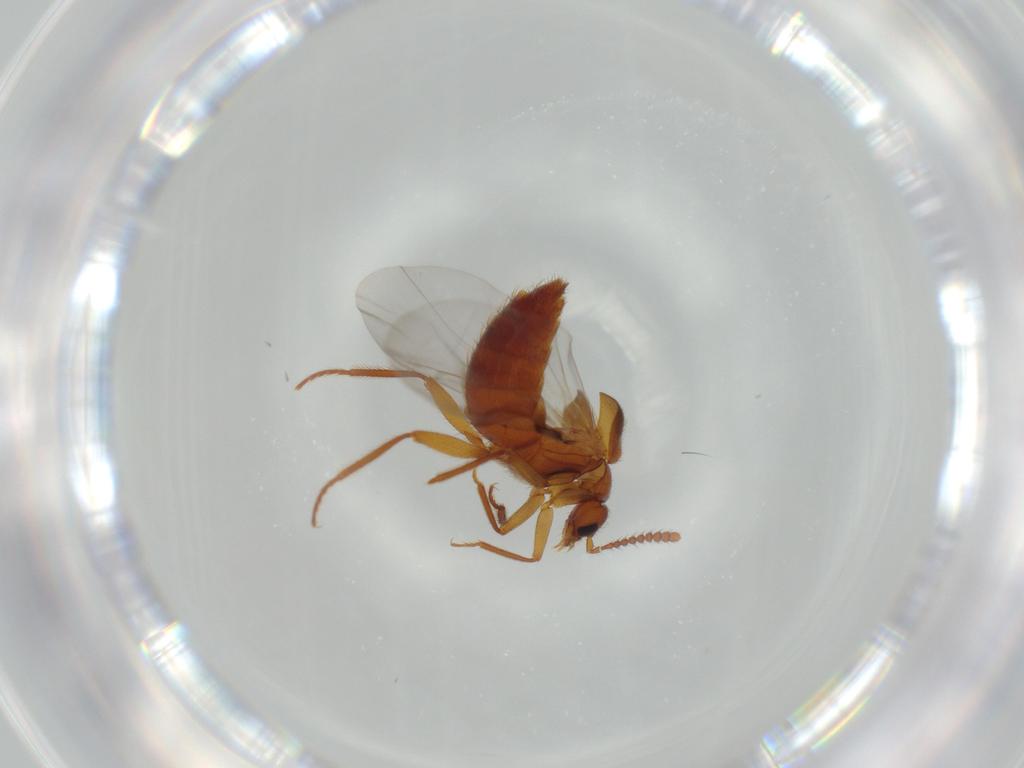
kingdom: Animalia
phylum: Arthropoda
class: Insecta
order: Coleoptera
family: Staphylinidae
